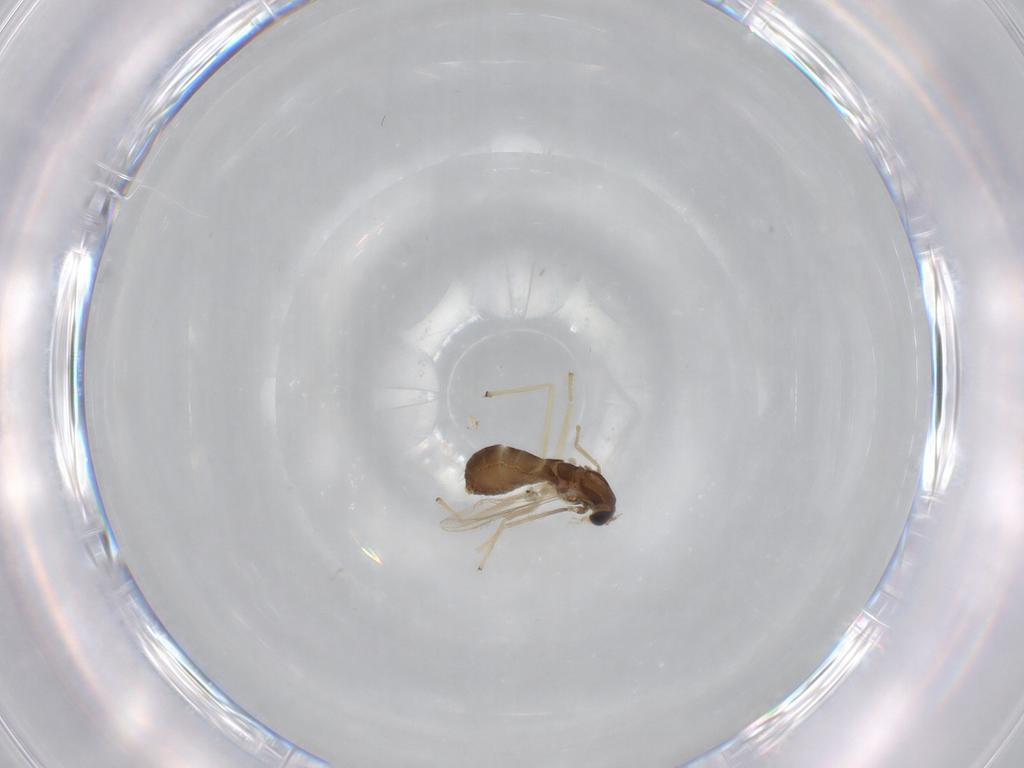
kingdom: Animalia
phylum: Arthropoda
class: Insecta
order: Diptera
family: Chironomidae
